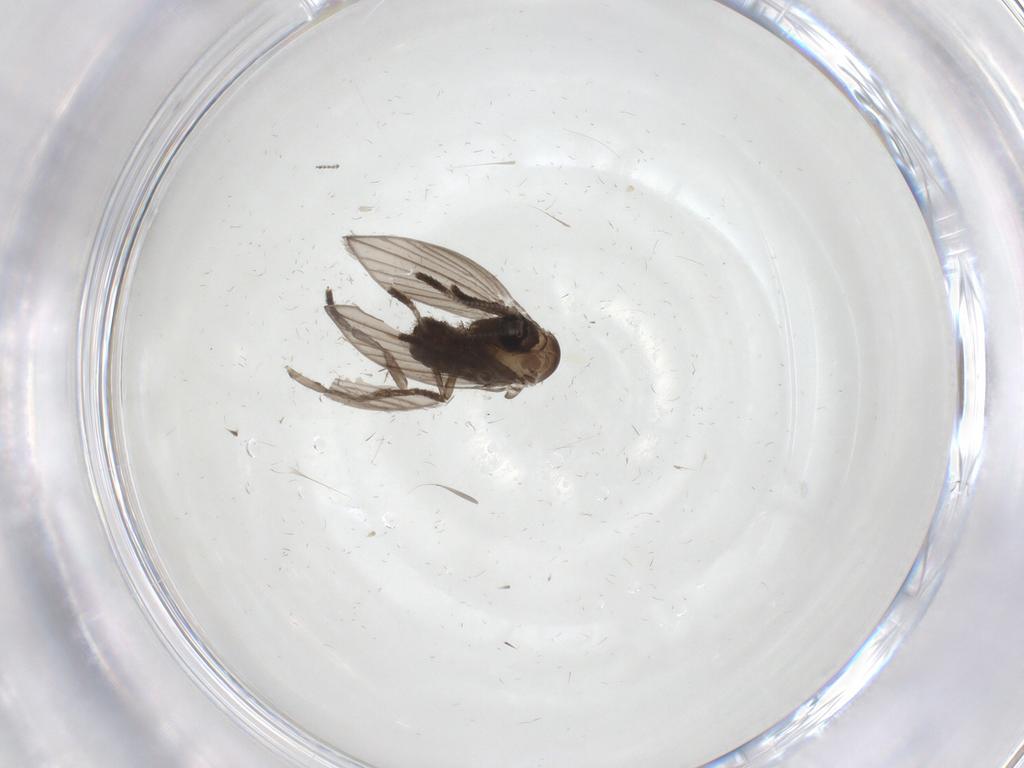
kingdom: Animalia
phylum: Arthropoda
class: Insecta
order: Diptera
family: Psychodidae
